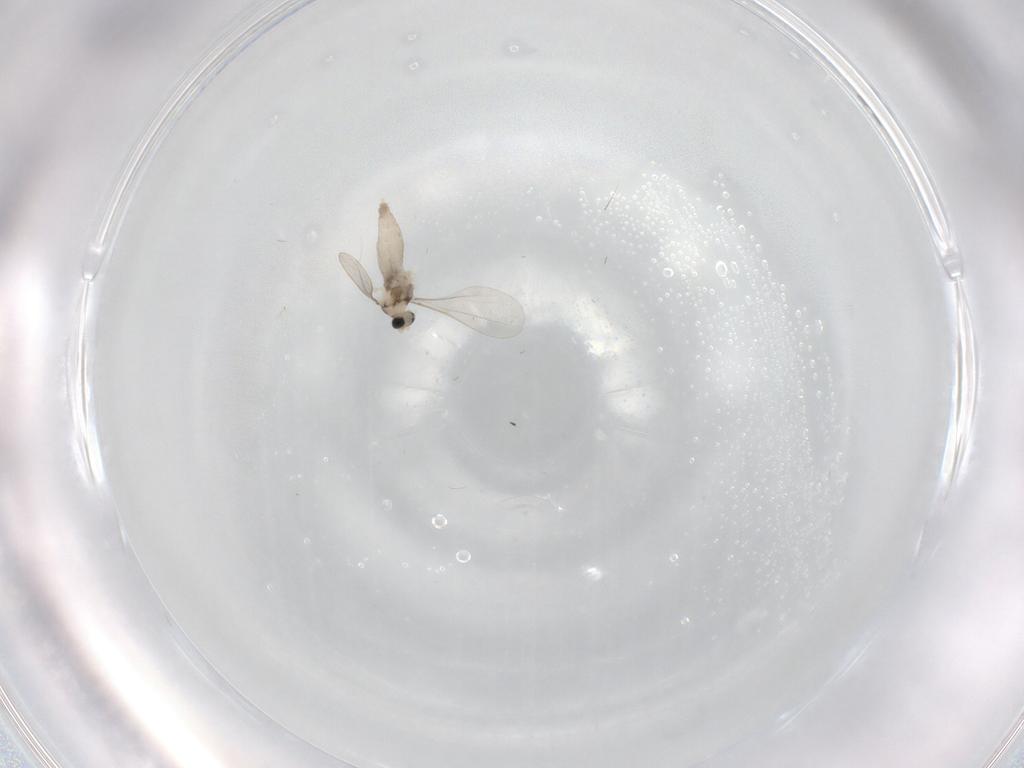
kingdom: Animalia
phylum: Arthropoda
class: Insecta
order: Diptera
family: Chironomidae
